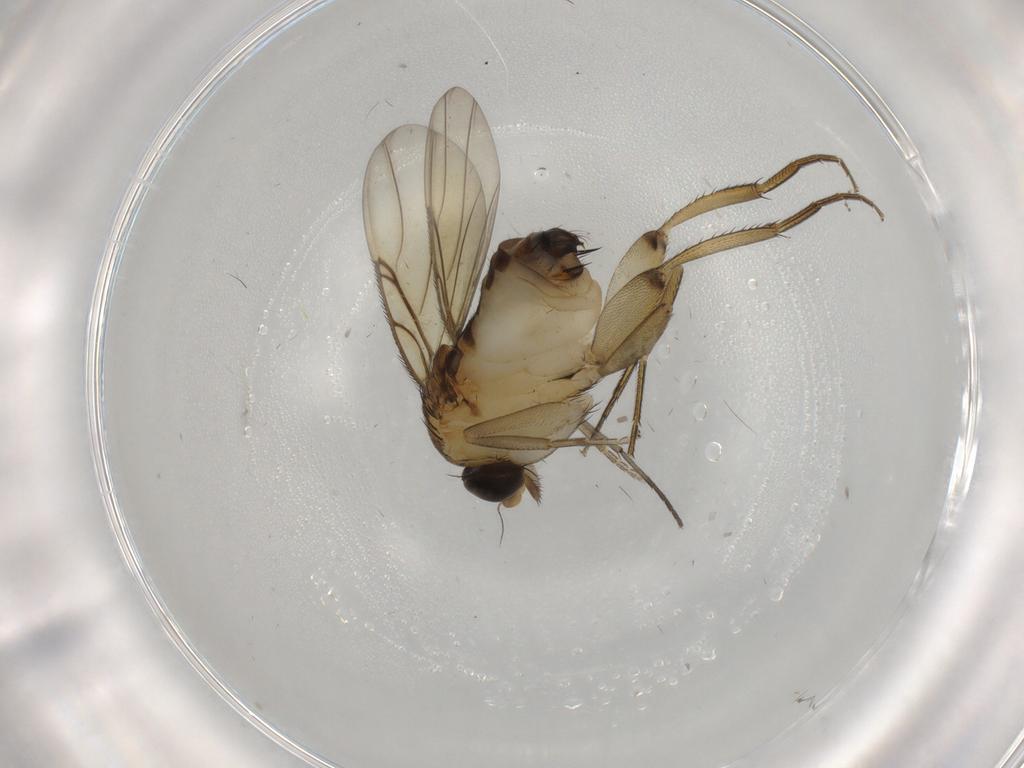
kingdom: Animalia
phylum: Arthropoda
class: Insecta
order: Diptera
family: Phoridae
